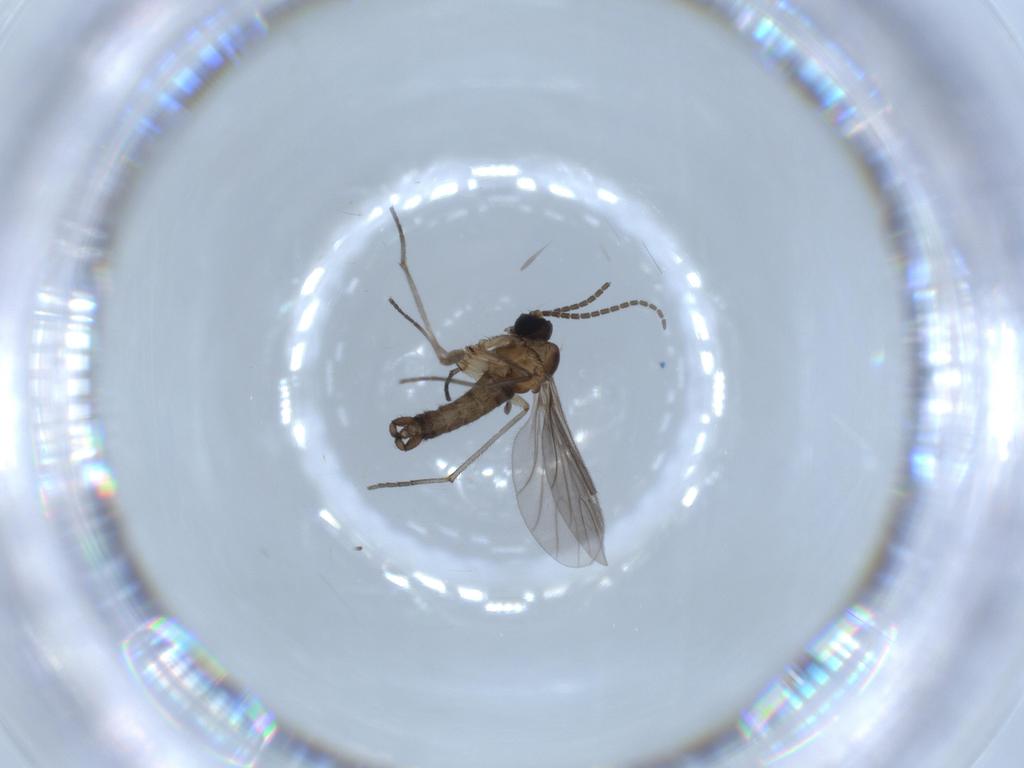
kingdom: Animalia
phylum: Arthropoda
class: Insecta
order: Diptera
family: Sciaridae
